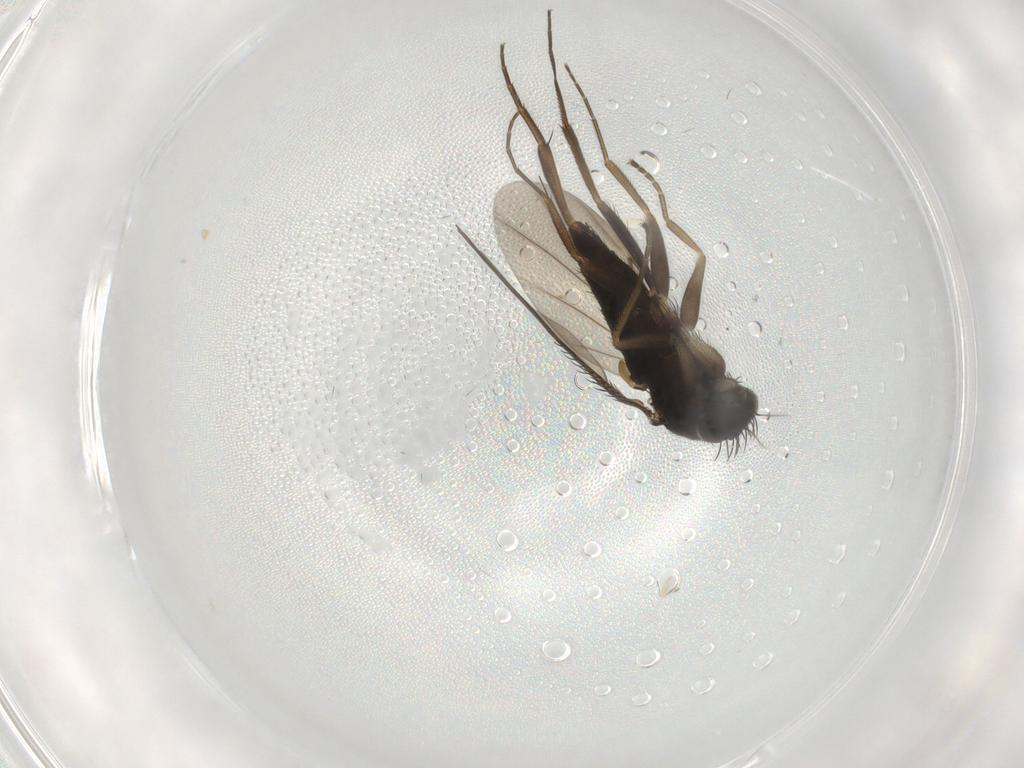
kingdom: Animalia
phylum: Arthropoda
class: Insecta
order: Diptera
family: Phoridae
